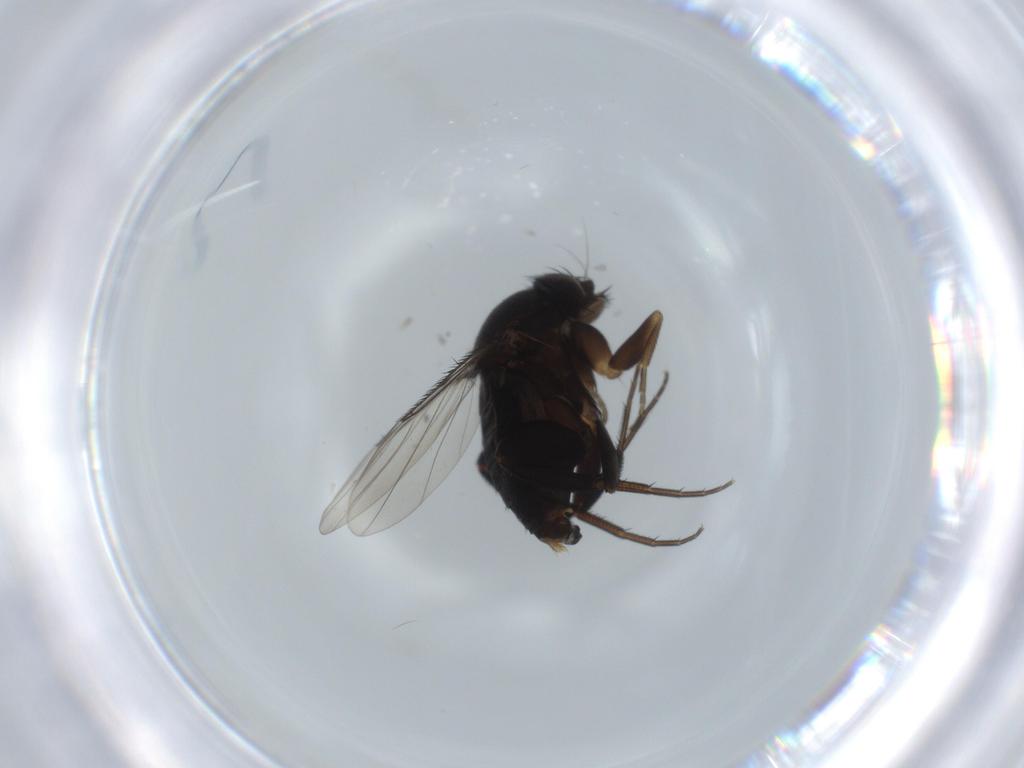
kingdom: Animalia
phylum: Arthropoda
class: Insecta
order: Diptera
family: Phoridae
